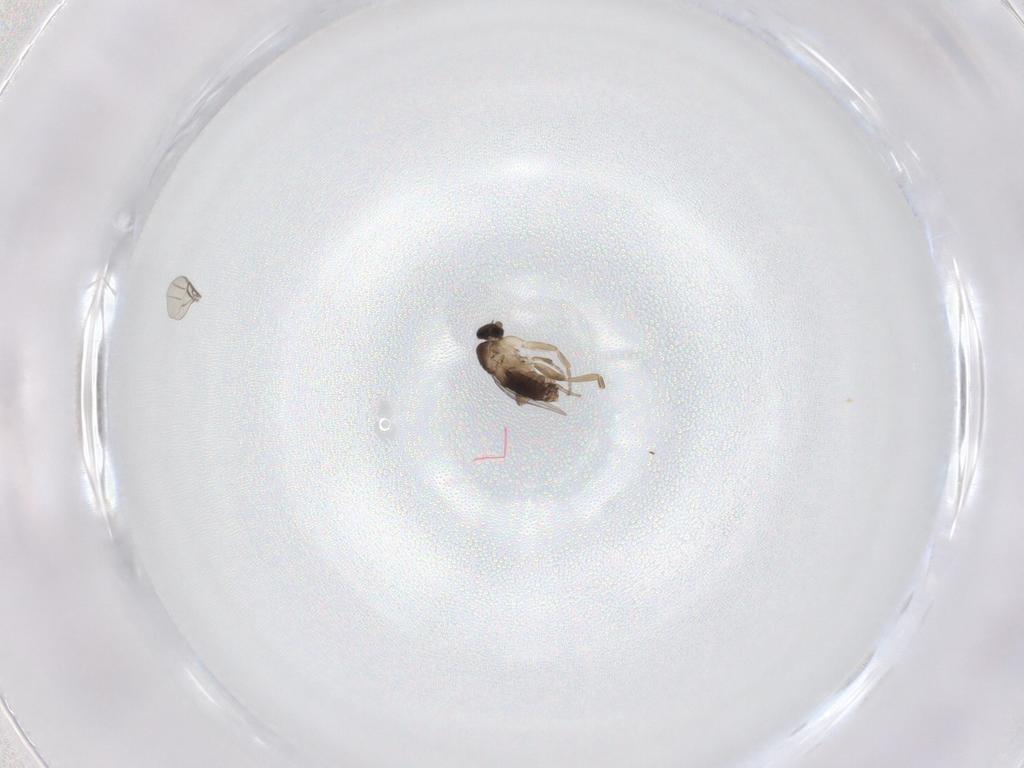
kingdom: Animalia
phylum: Arthropoda
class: Insecta
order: Diptera
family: Phoridae
